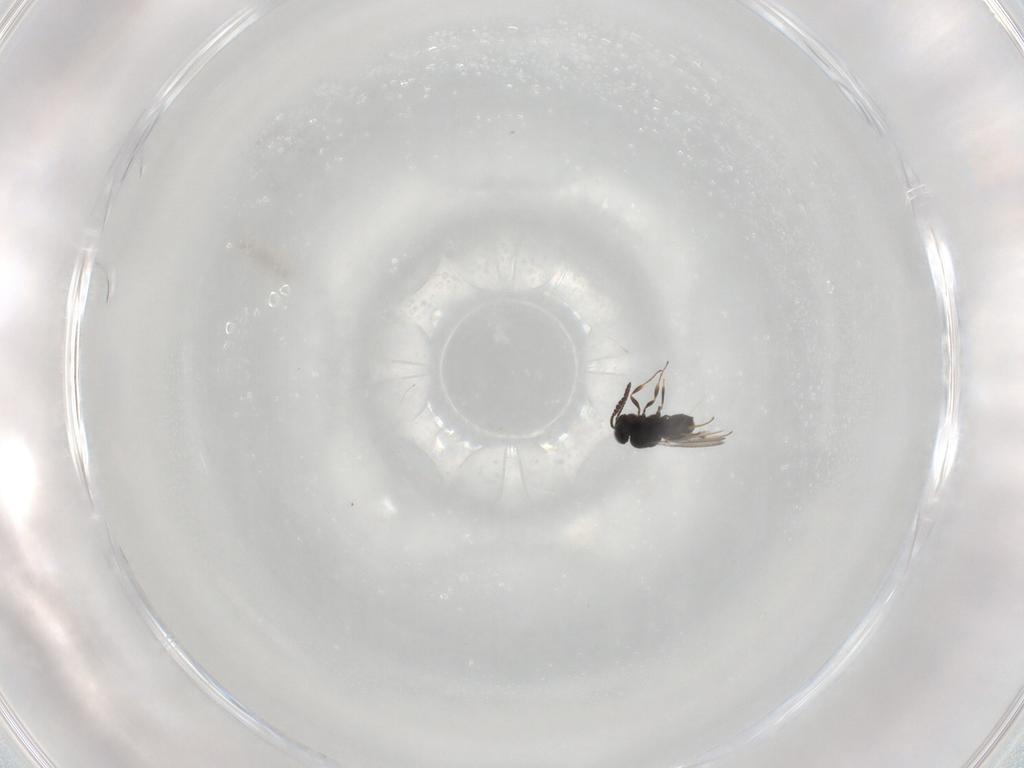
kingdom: Animalia
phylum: Arthropoda
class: Insecta
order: Hymenoptera
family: Scelionidae
